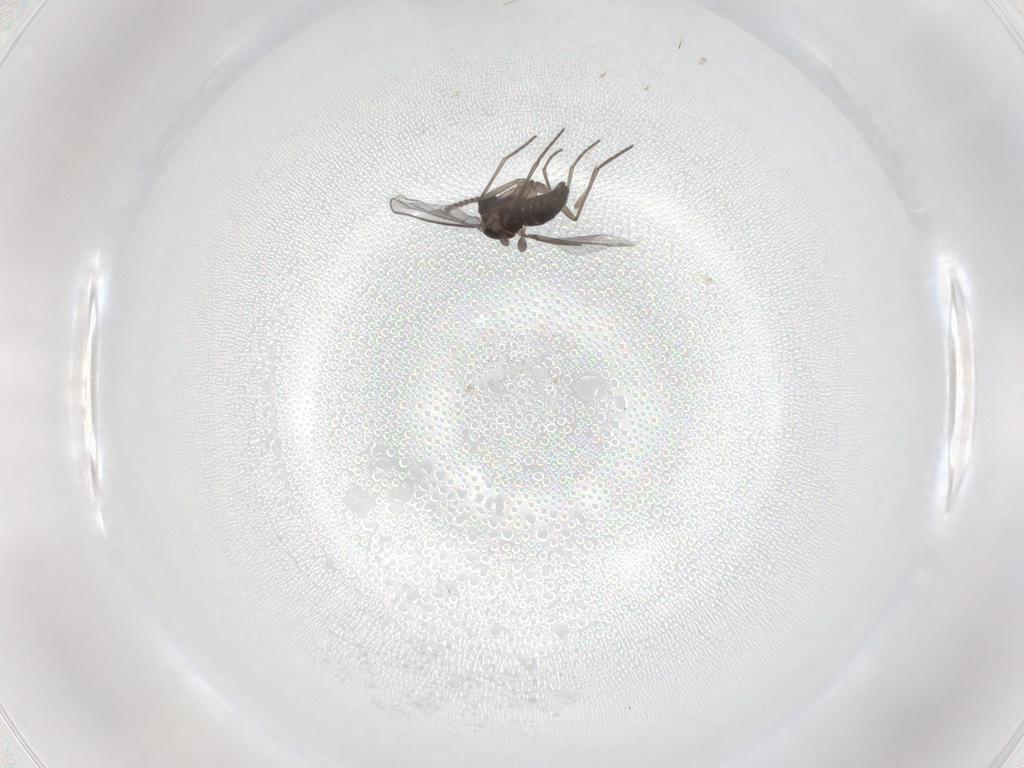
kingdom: Animalia
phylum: Arthropoda
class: Insecta
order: Diptera
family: Sciaridae
